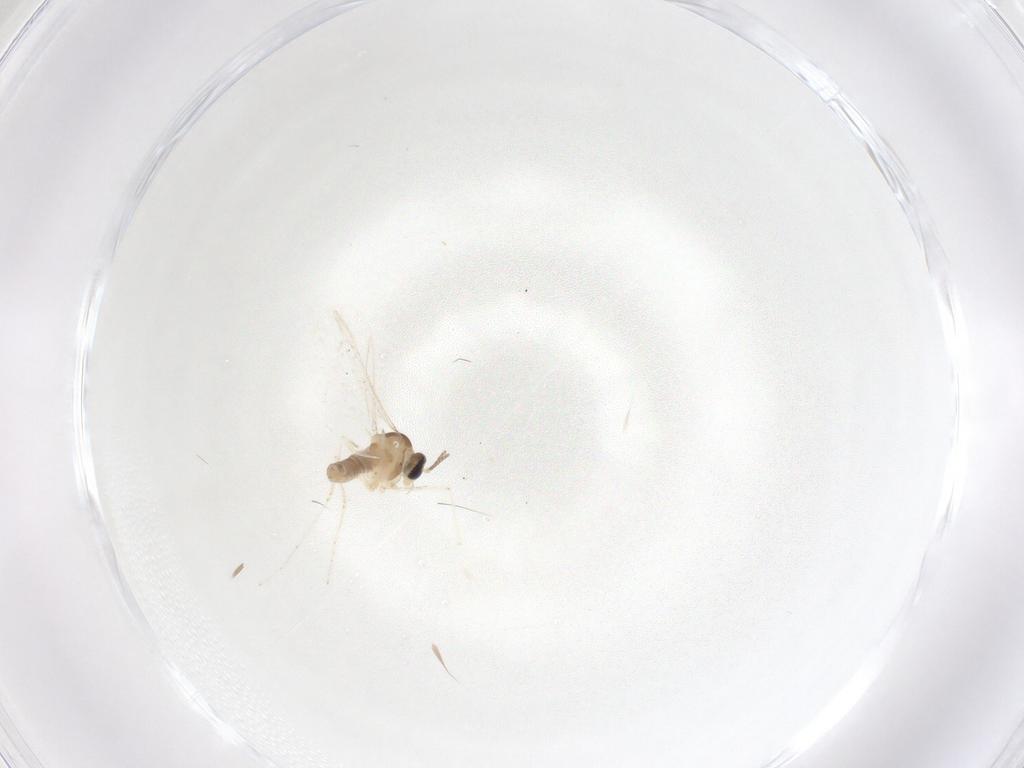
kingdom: Animalia
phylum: Arthropoda
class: Insecta
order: Diptera
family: Cecidomyiidae
